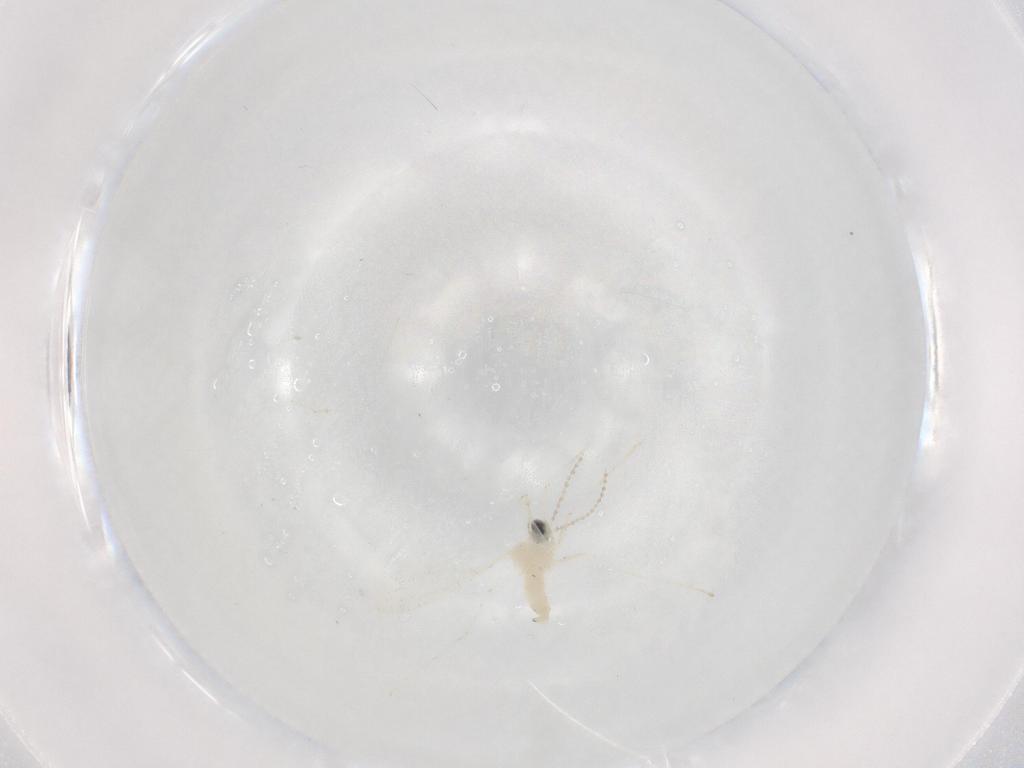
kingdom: Animalia
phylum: Arthropoda
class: Insecta
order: Diptera
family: Cecidomyiidae
